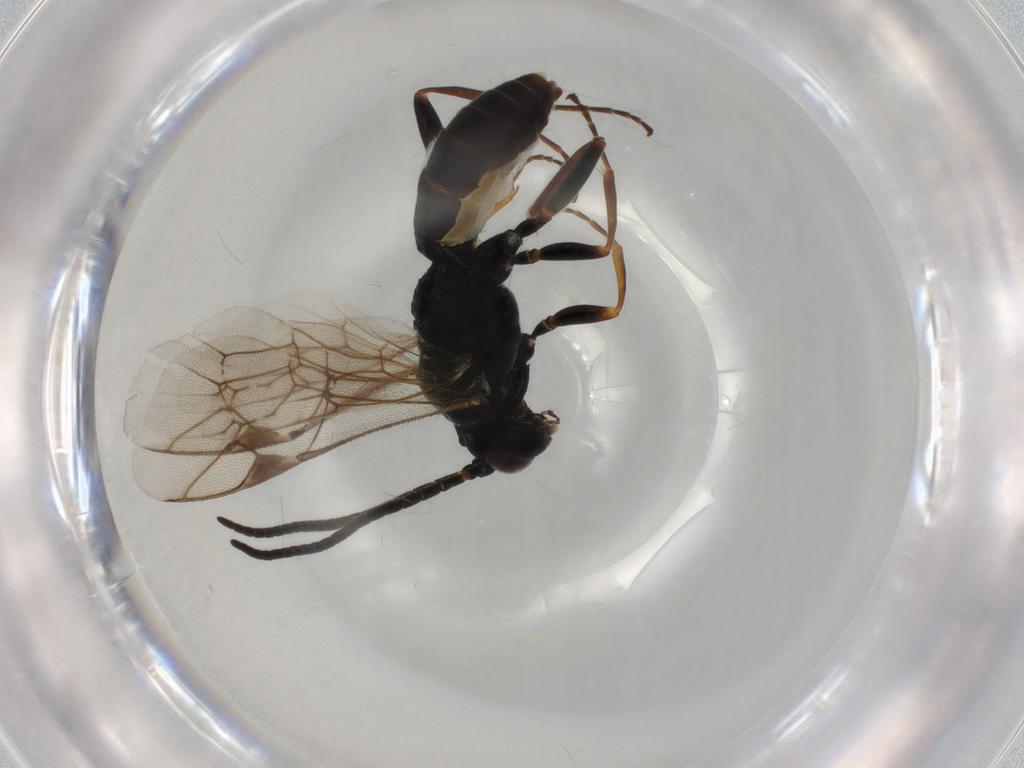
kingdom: Animalia
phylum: Arthropoda
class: Insecta
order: Hymenoptera
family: Ichneumonidae
